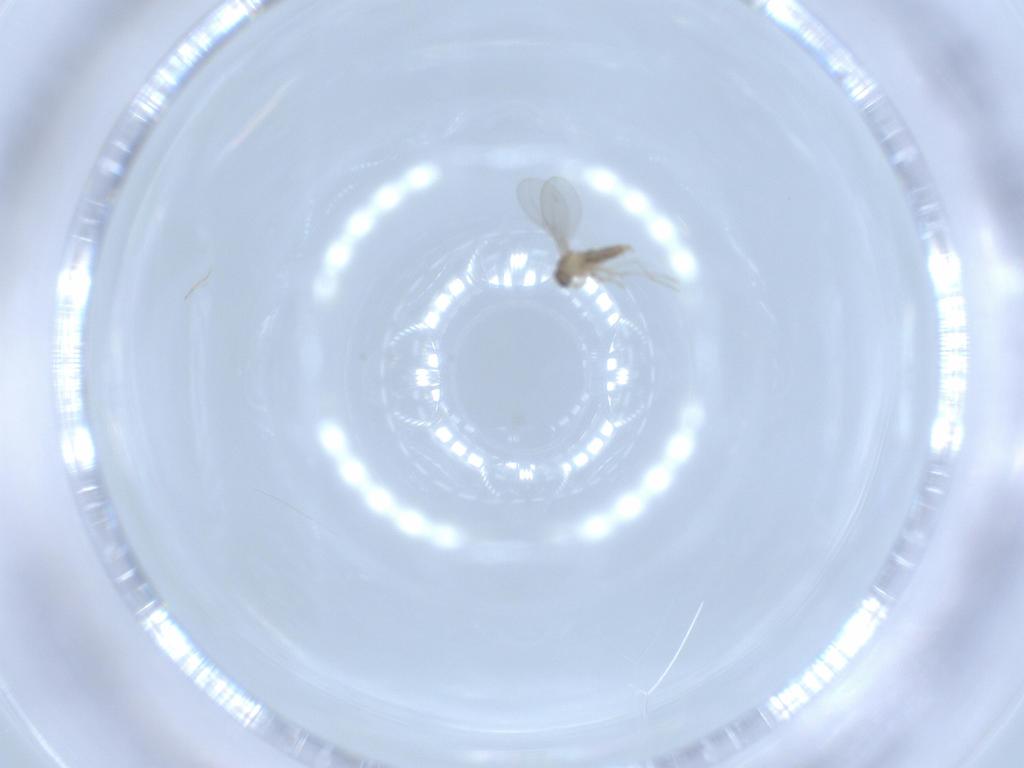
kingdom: Animalia
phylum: Arthropoda
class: Insecta
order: Diptera
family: Cecidomyiidae
